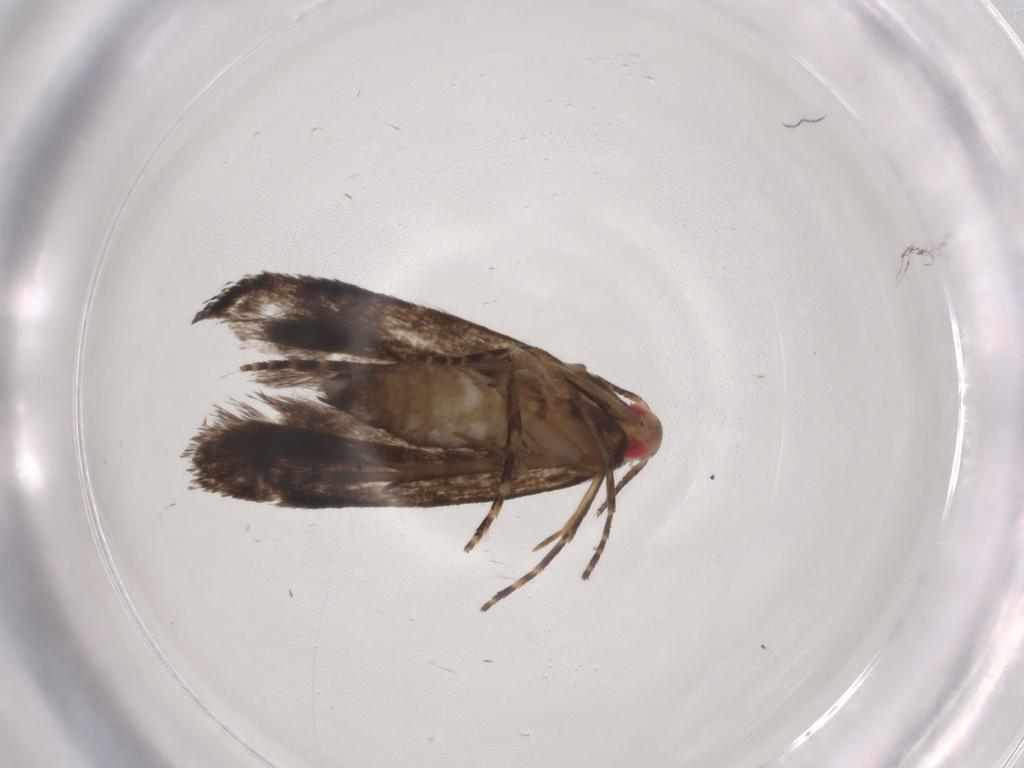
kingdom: Animalia
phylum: Arthropoda
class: Insecta
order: Lepidoptera
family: Gelechiidae
